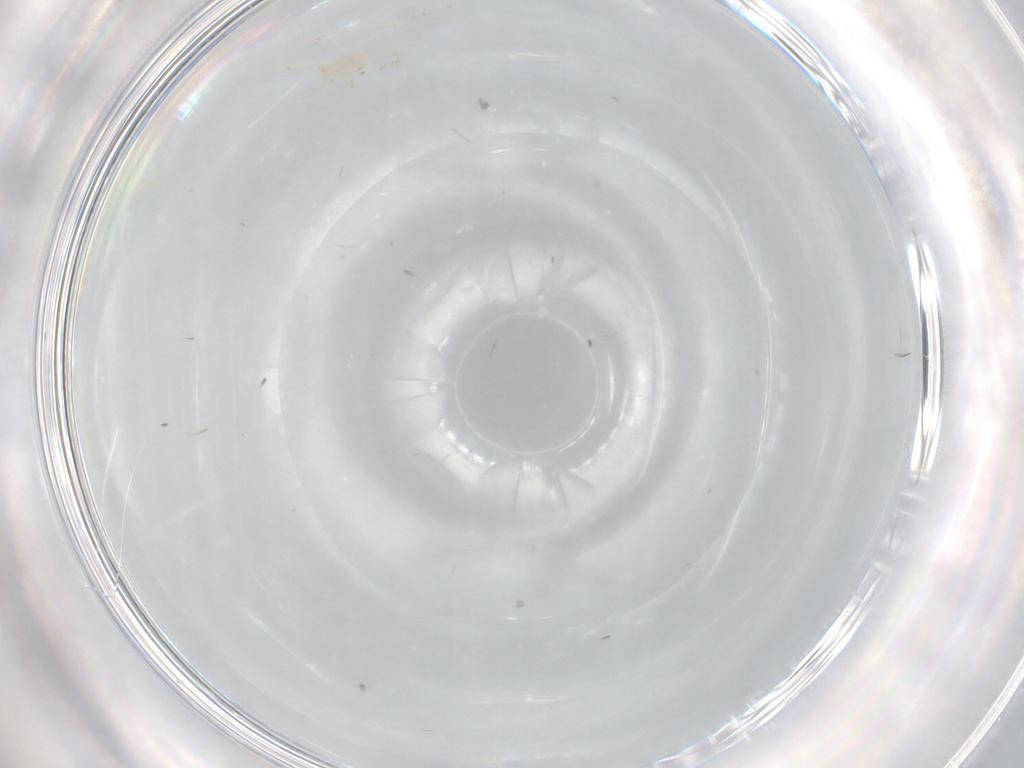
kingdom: Animalia
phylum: Arthropoda
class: Arachnida
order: Trombidiformes
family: Erythraeidae
